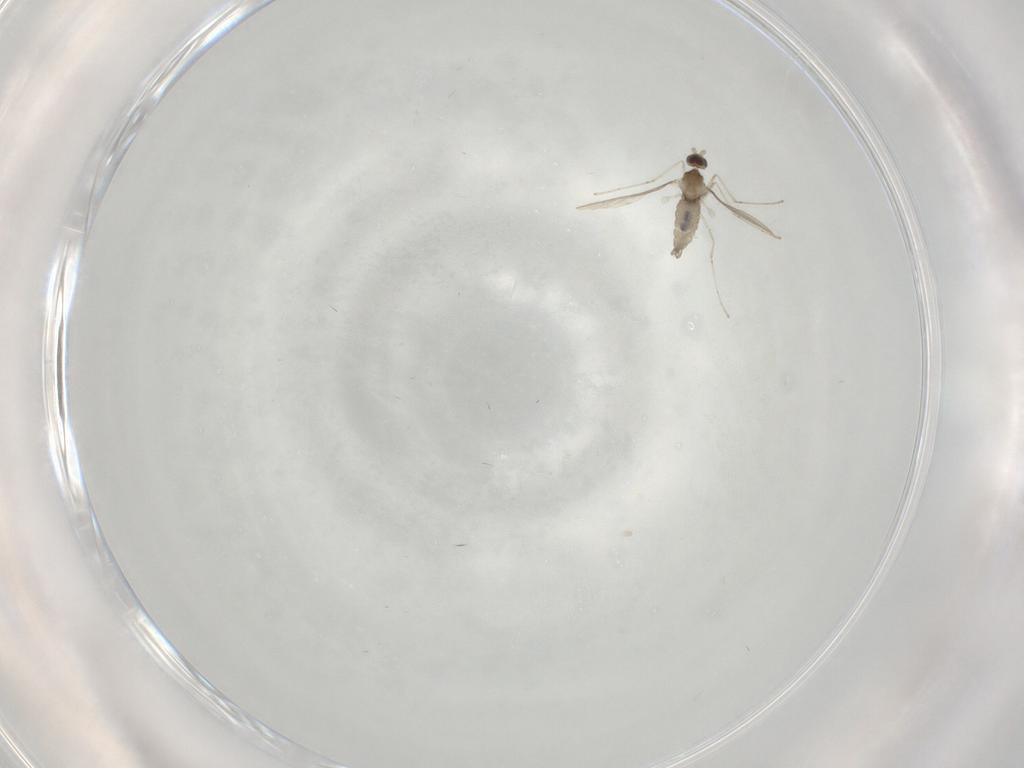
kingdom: Animalia
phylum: Arthropoda
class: Insecta
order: Diptera
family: Cecidomyiidae
